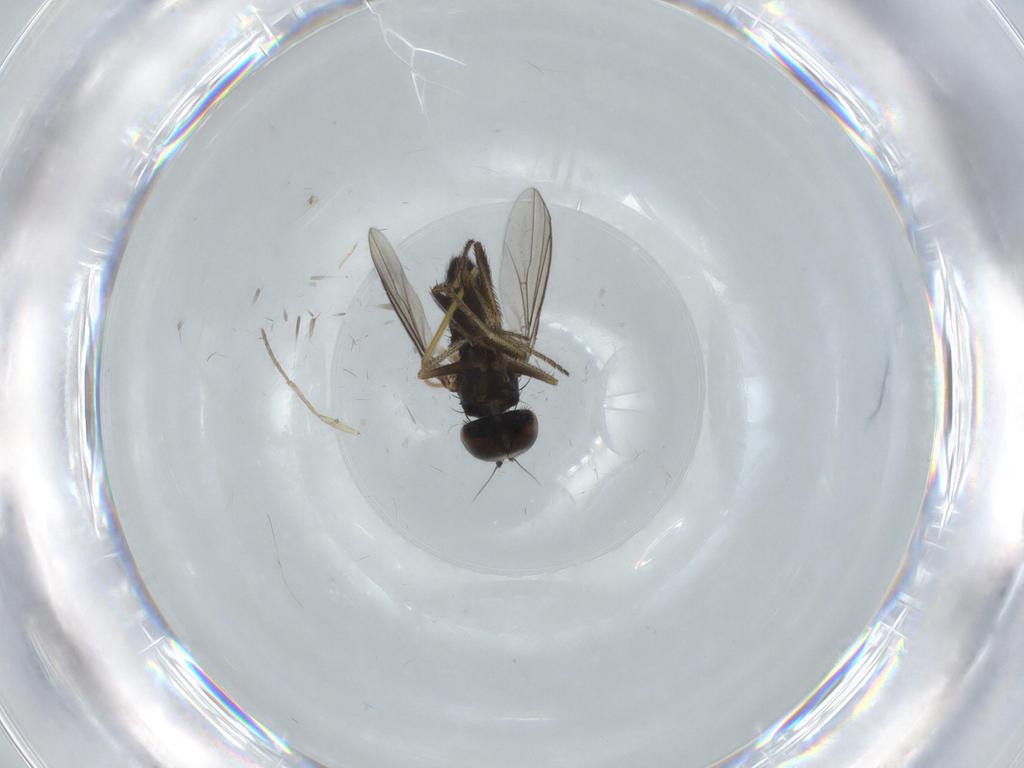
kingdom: Animalia
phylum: Arthropoda
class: Insecta
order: Diptera
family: Dolichopodidae
